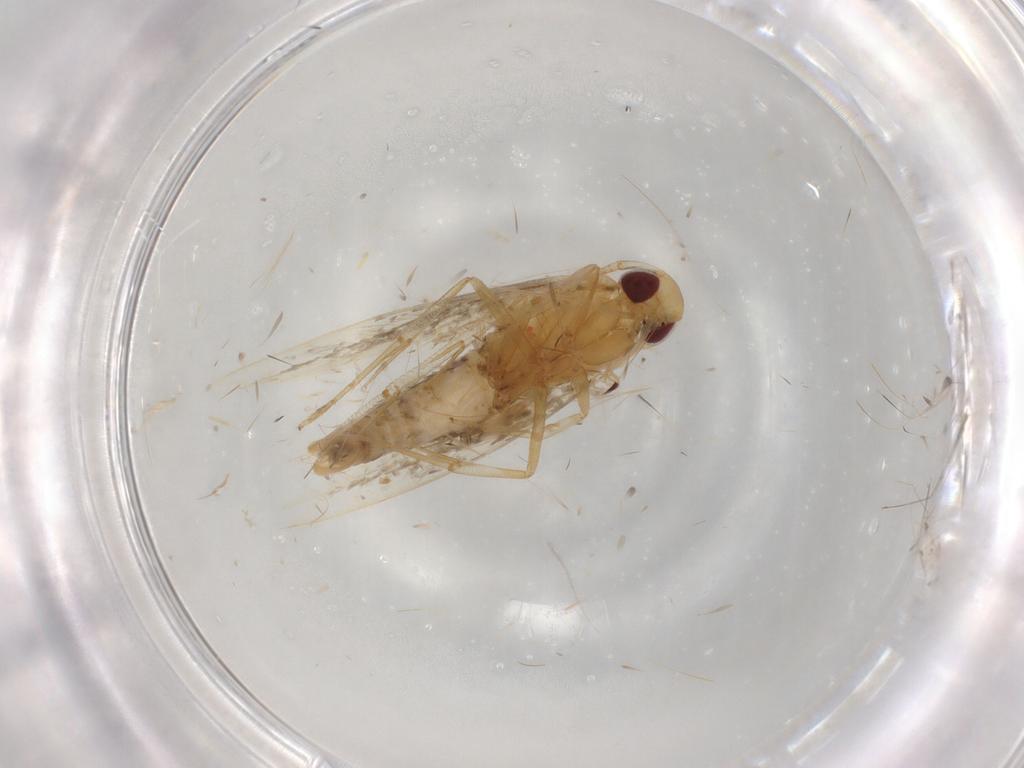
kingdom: Animalia
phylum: Arthropoda
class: Insecta
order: Lepidoptera
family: Cosmopterigidae
